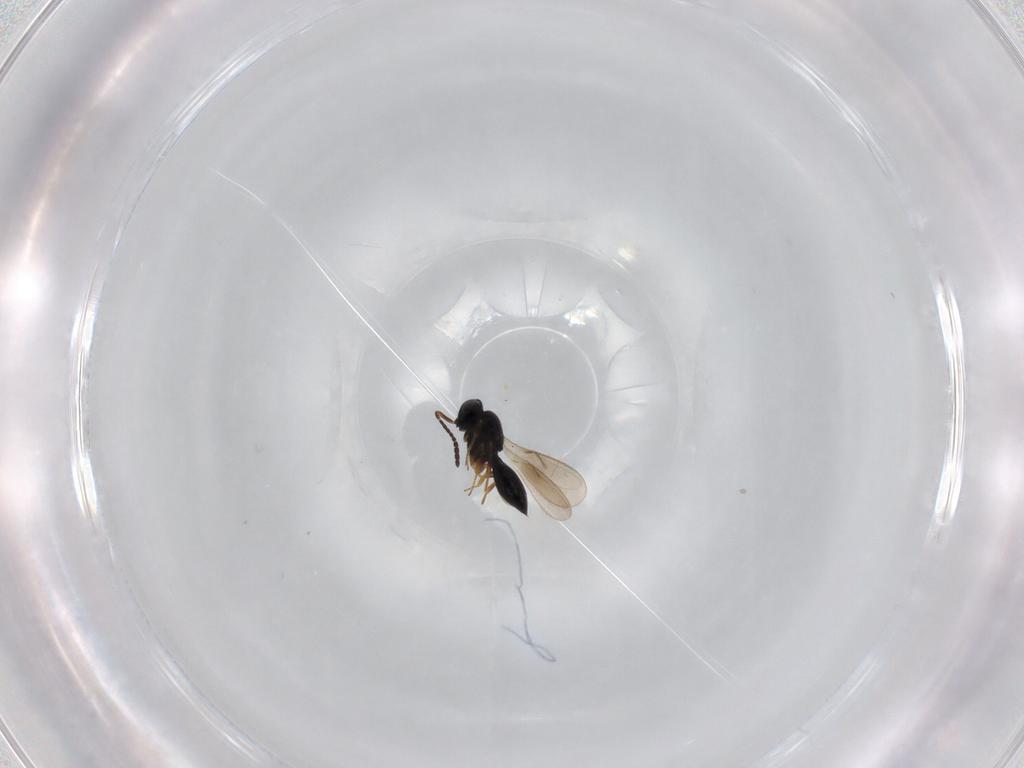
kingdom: Animalia
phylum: Arthropoda
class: Insecta
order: Hymenoptera
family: Scelionidae
